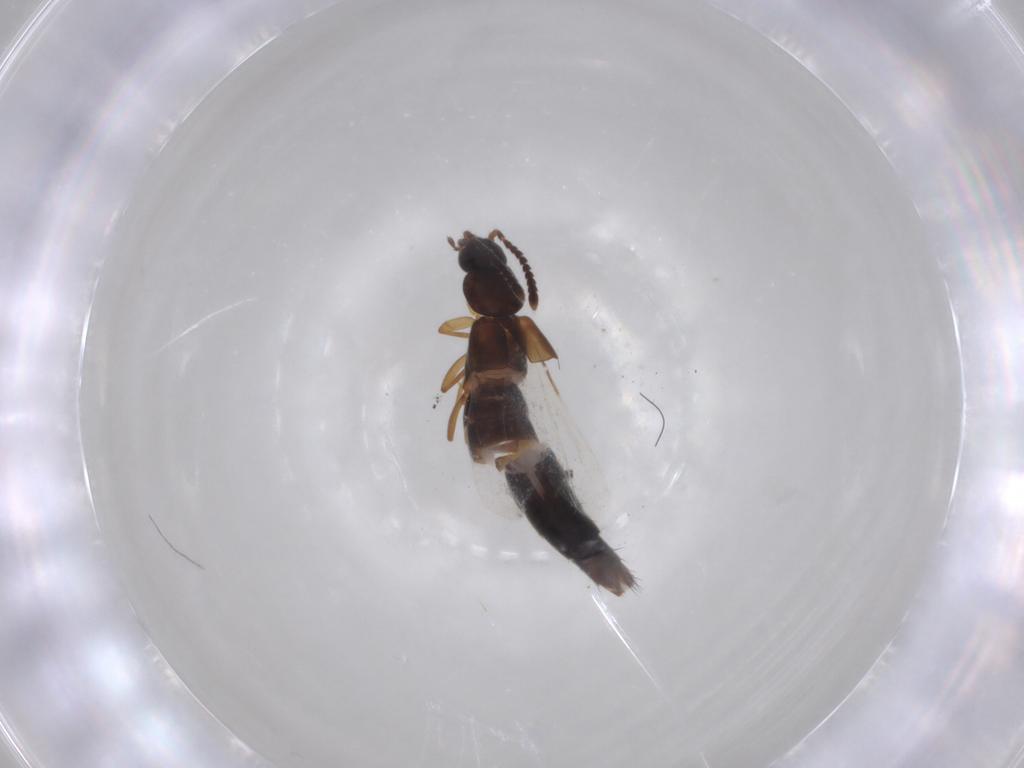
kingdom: Animalia
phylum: Arthropoda
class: Insecta
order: Coleoptera
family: Staphylinidae
